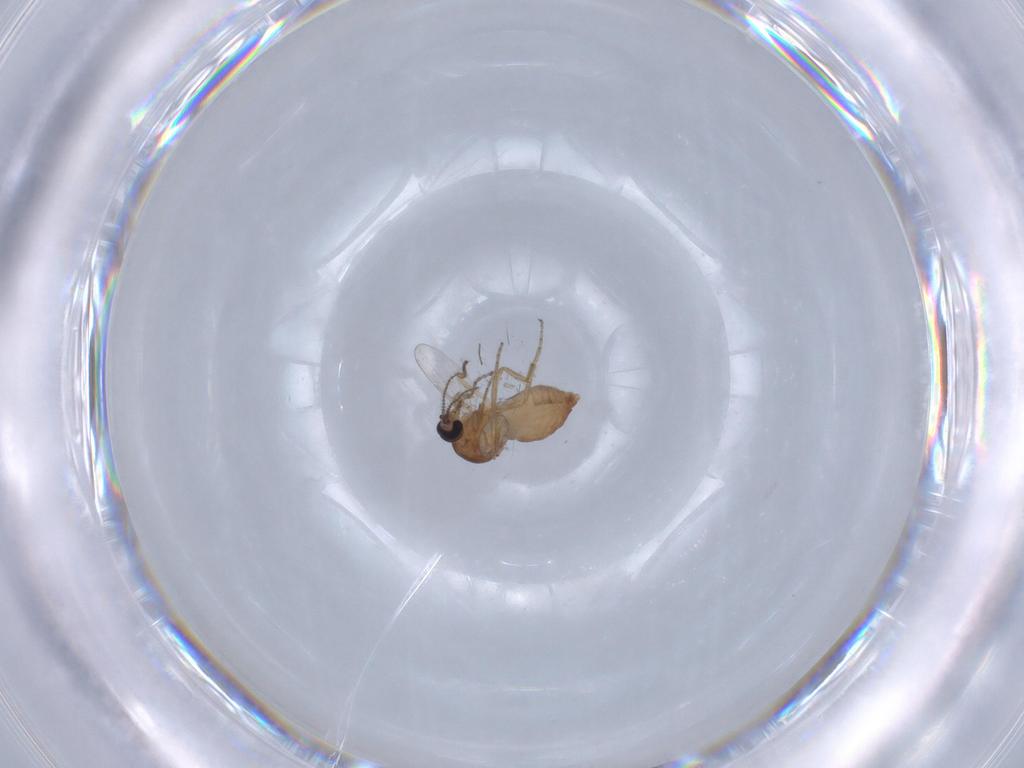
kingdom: Animalia
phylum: Arthropoda
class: Insecta
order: Diptera
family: Ceratopogonidae
